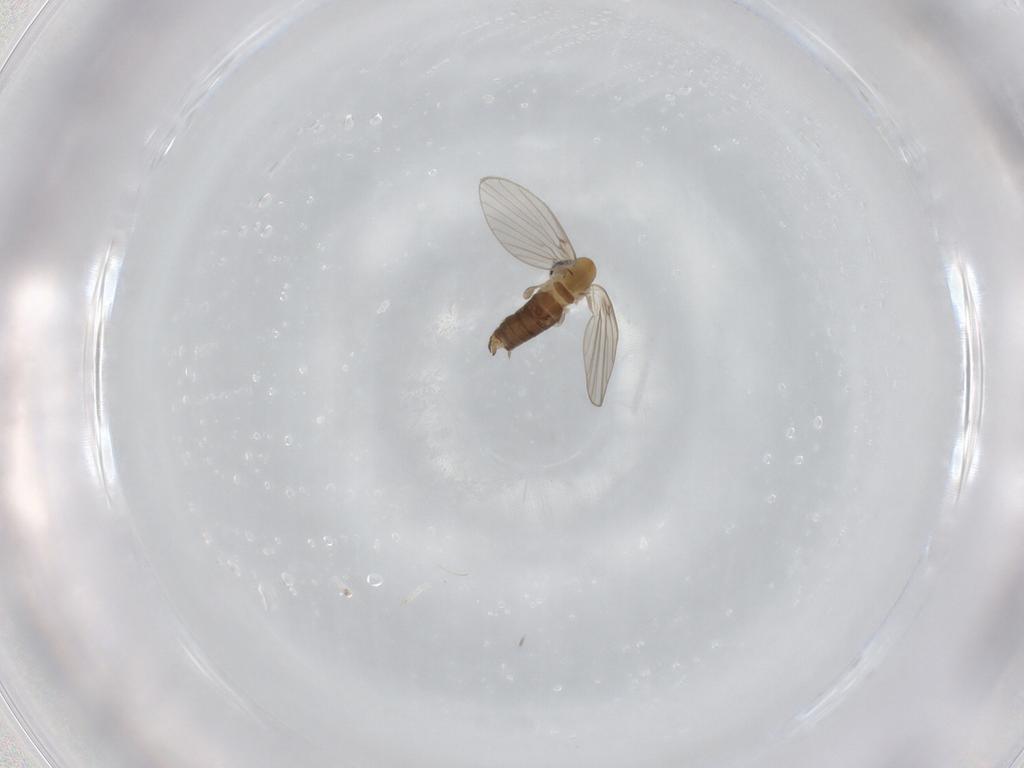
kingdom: Animalia
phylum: Arthropoda
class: Insecta
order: Diptera
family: Psychodidae
